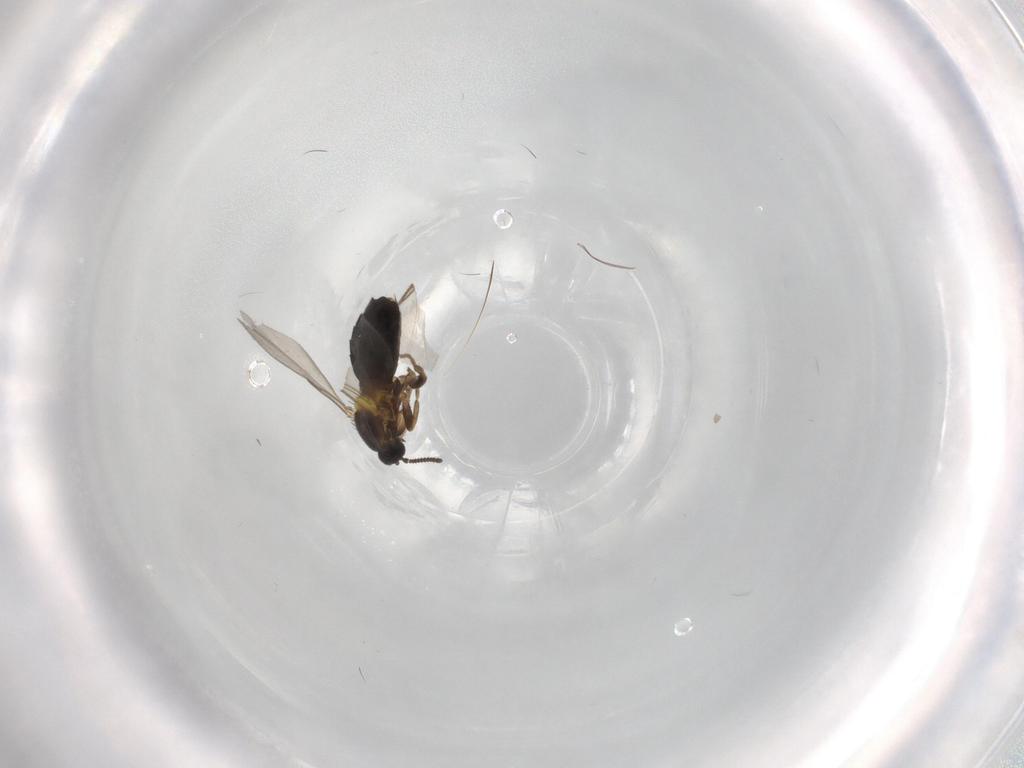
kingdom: Animalia
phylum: Arthropoda
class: Insecta
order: Diptera
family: Scatopsidae
